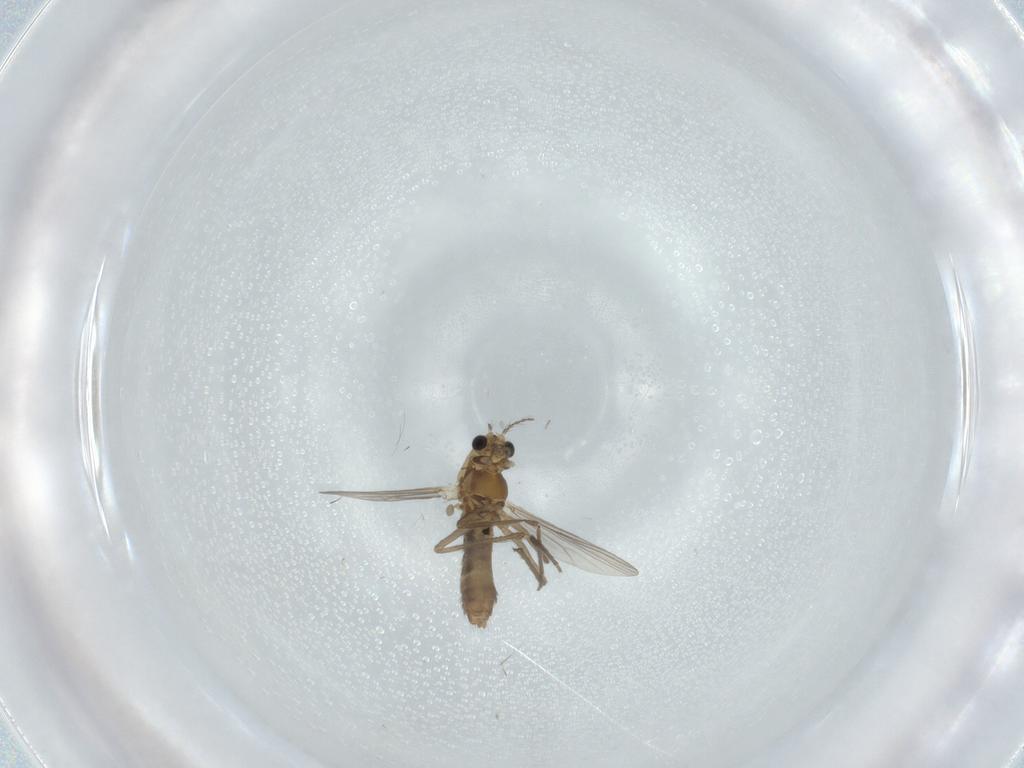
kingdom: Animalia
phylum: Arthropoda
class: Insecta
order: Diptera
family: Chironomidae
